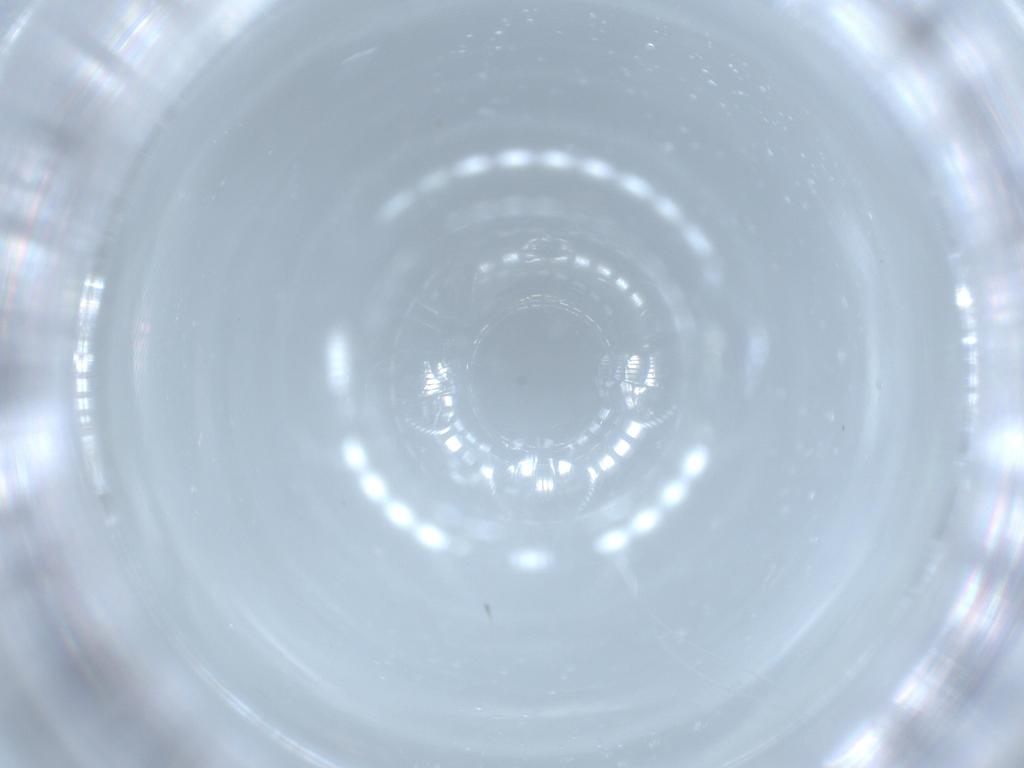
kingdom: Animalia
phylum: Arthropoda
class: Insecta
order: Diptera
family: Cecidomyiidae
